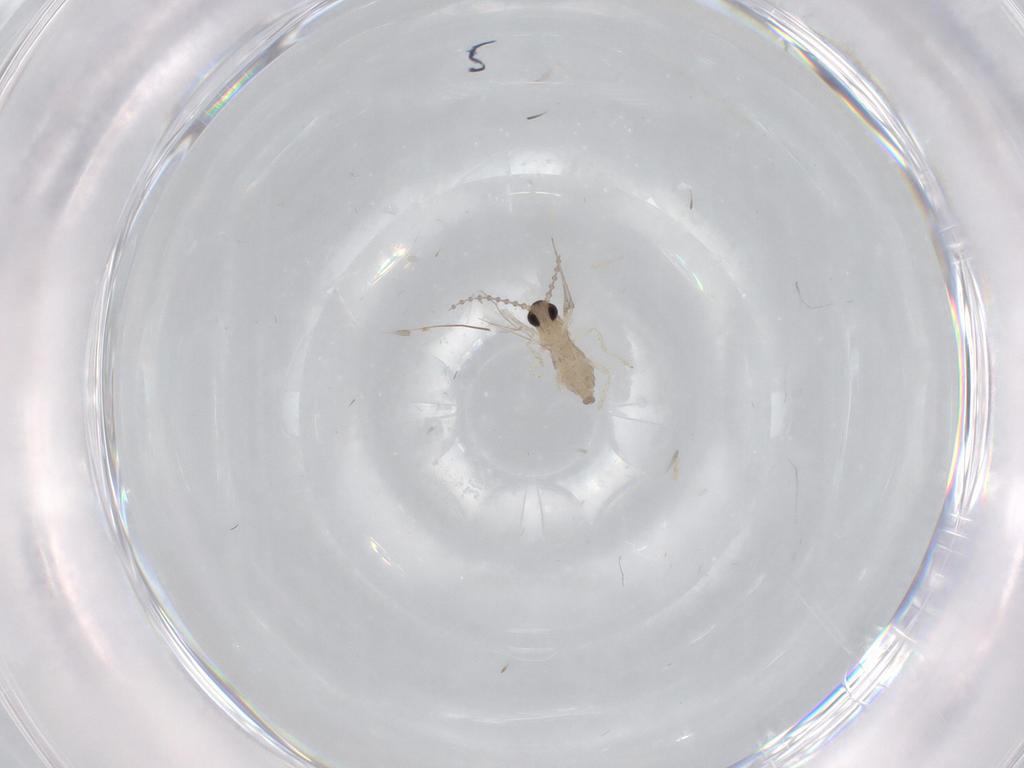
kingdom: Animalia
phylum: Arthropoda
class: Insecta
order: Diptera
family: Cecidomyiidae
